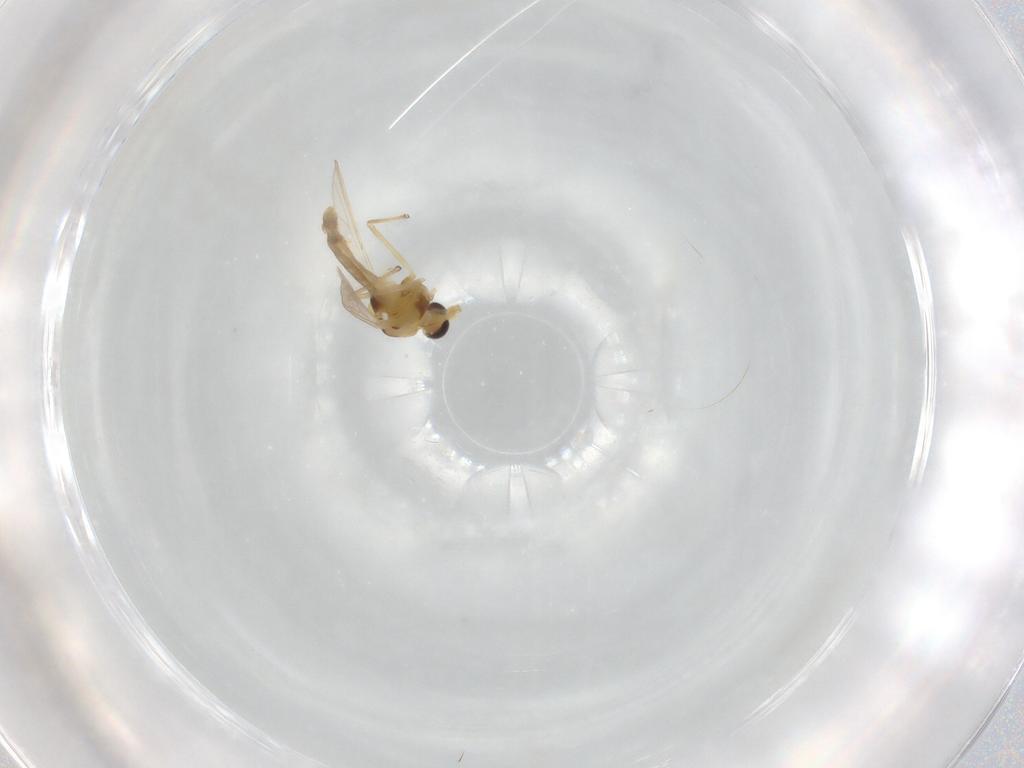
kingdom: Animalia
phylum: Arthropoda
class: Insecta
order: Diptera
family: Chironomidae
